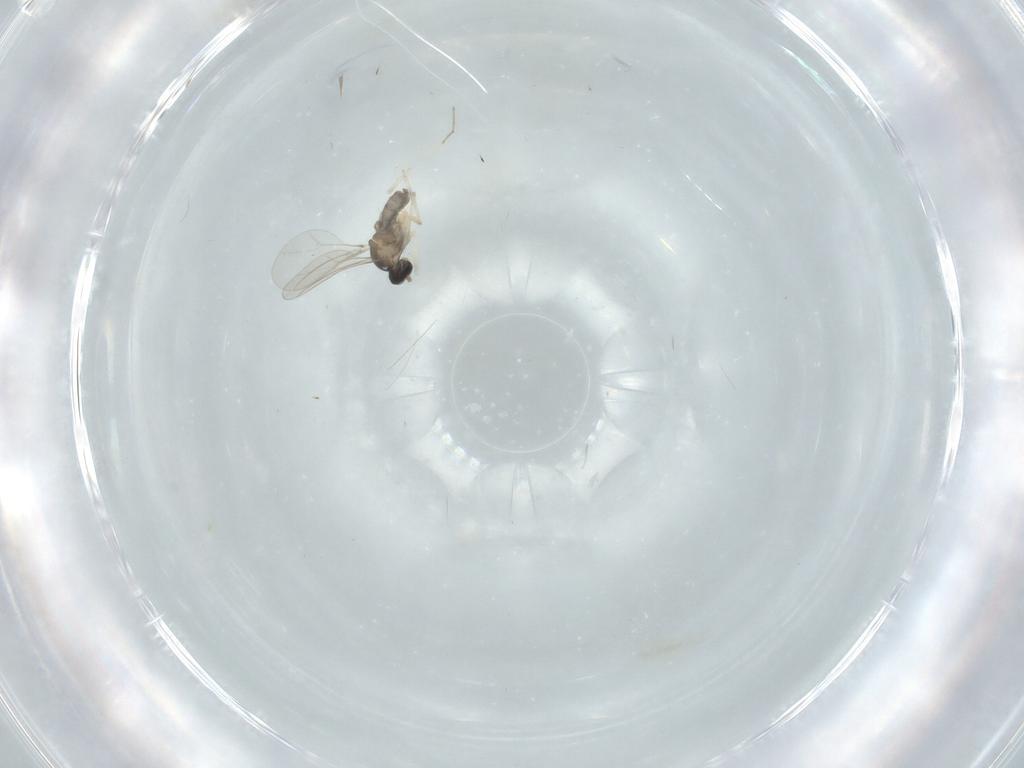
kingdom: Animalia
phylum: Arthropoda
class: Insecta
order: Diptera
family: Cecidomyiidae
